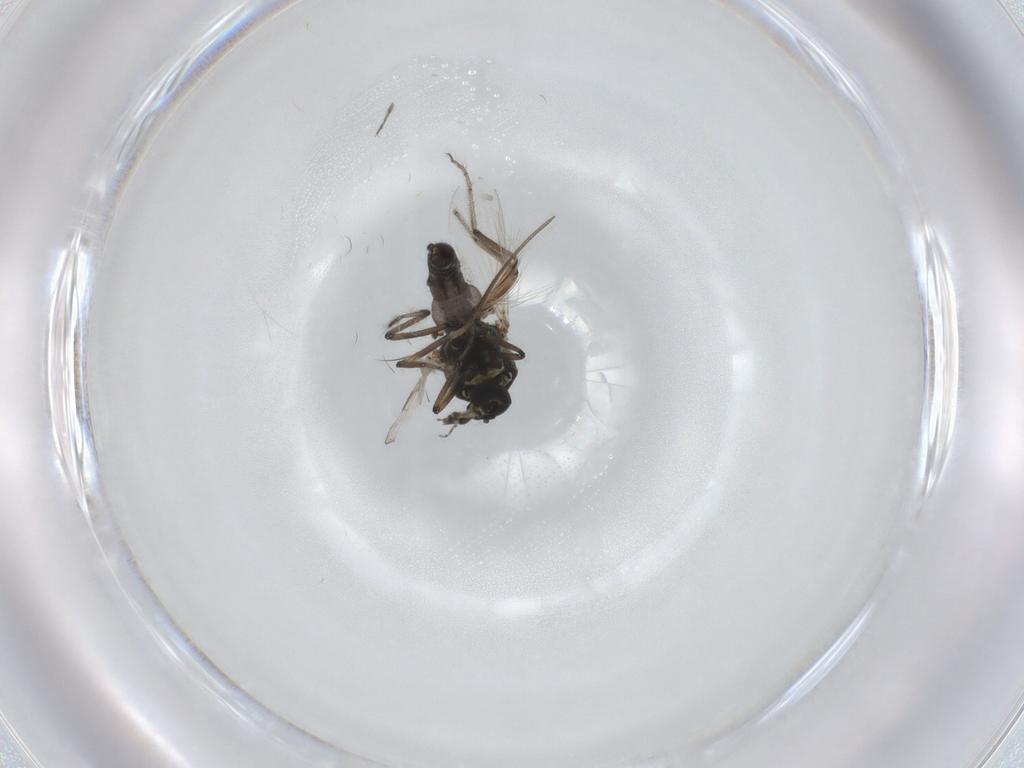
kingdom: Animalia
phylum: Arthropoda
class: Insecta
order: Diptera
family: Ceratopogonidae
